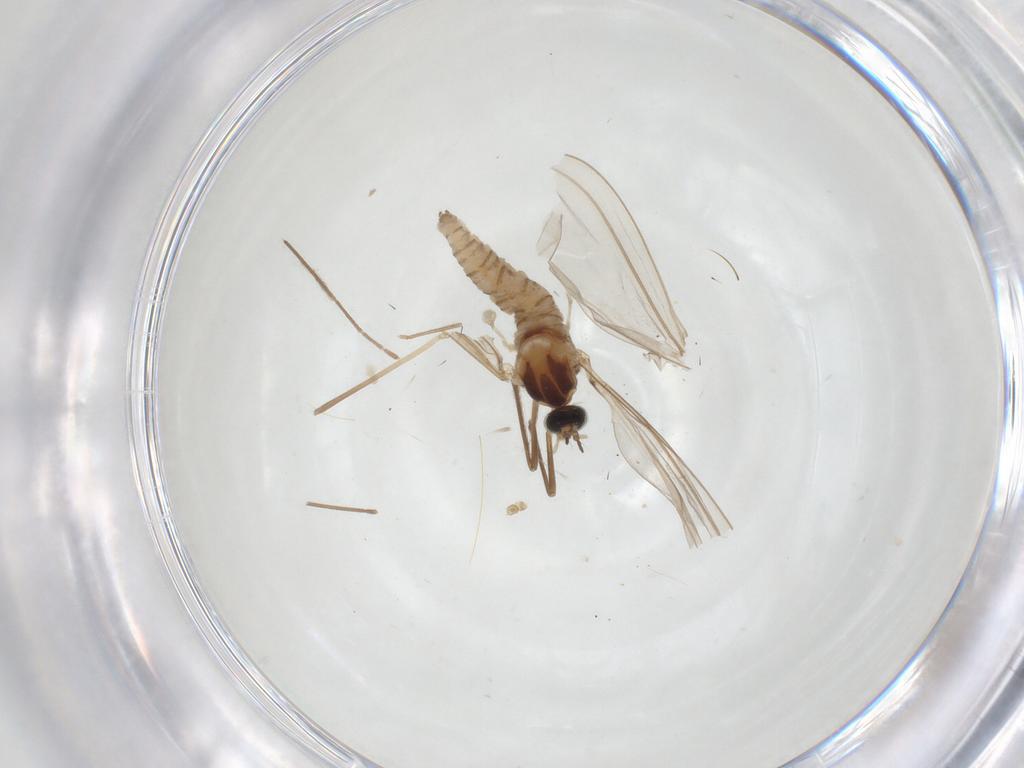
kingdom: Animalia
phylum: Arthropoda
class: Insecta
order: Diptera
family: Cecidomyiidae
